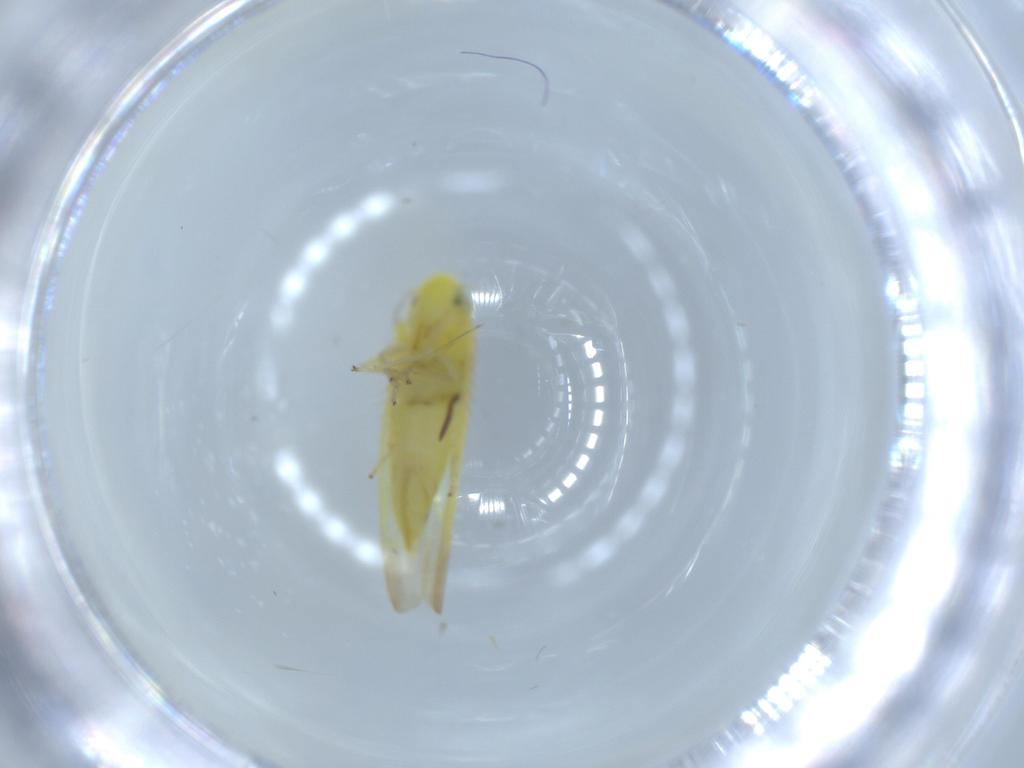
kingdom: Animalia
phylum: Arthropoda
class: Insecta
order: Hemiptera
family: Cicadellidae
